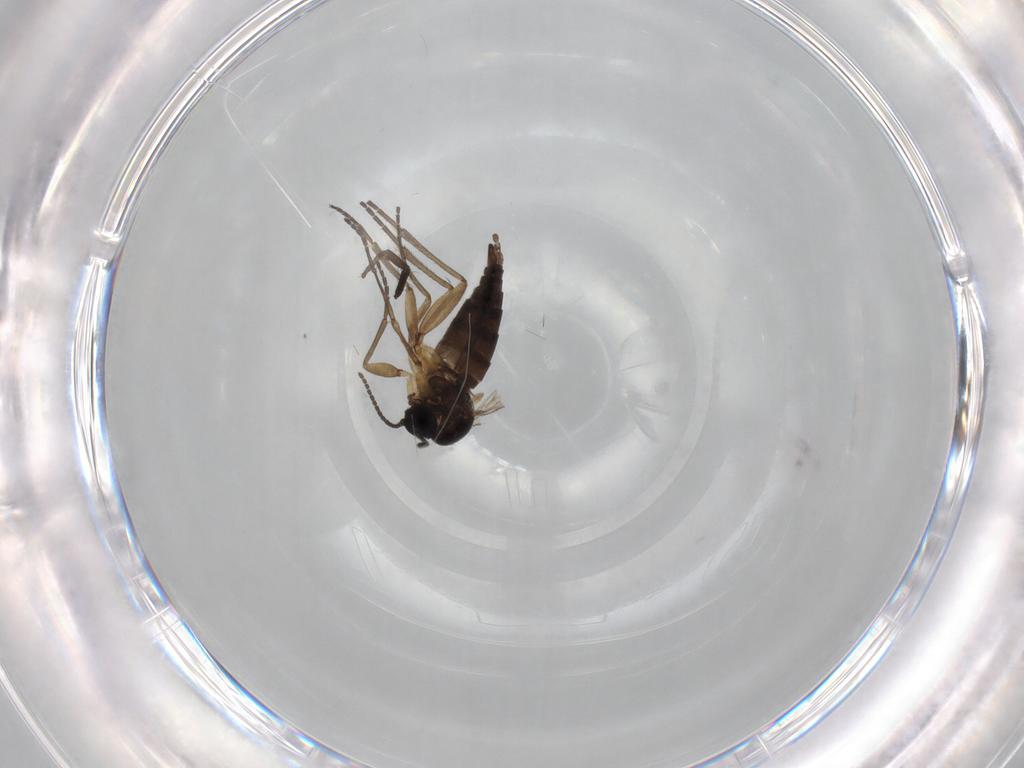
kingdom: Animalia
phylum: Arthropoda
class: Insecta
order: Diptera
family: Sciaridae
